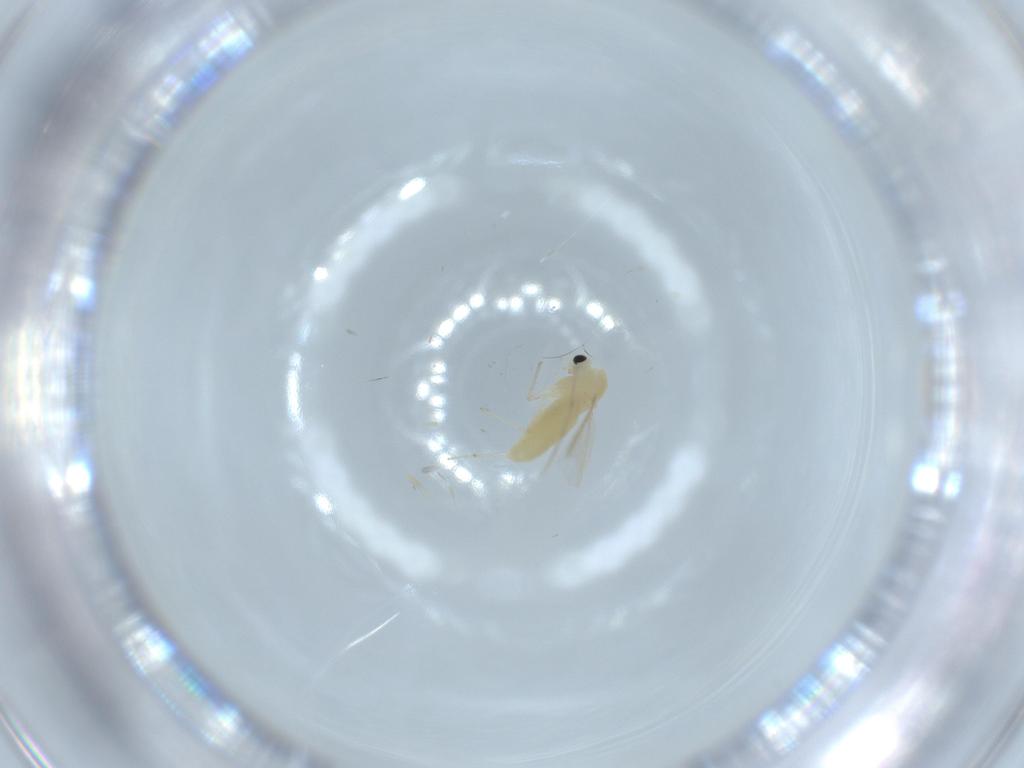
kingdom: Animalia
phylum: Arthropoda
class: Insecta
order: Diptera
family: Chironomidae
